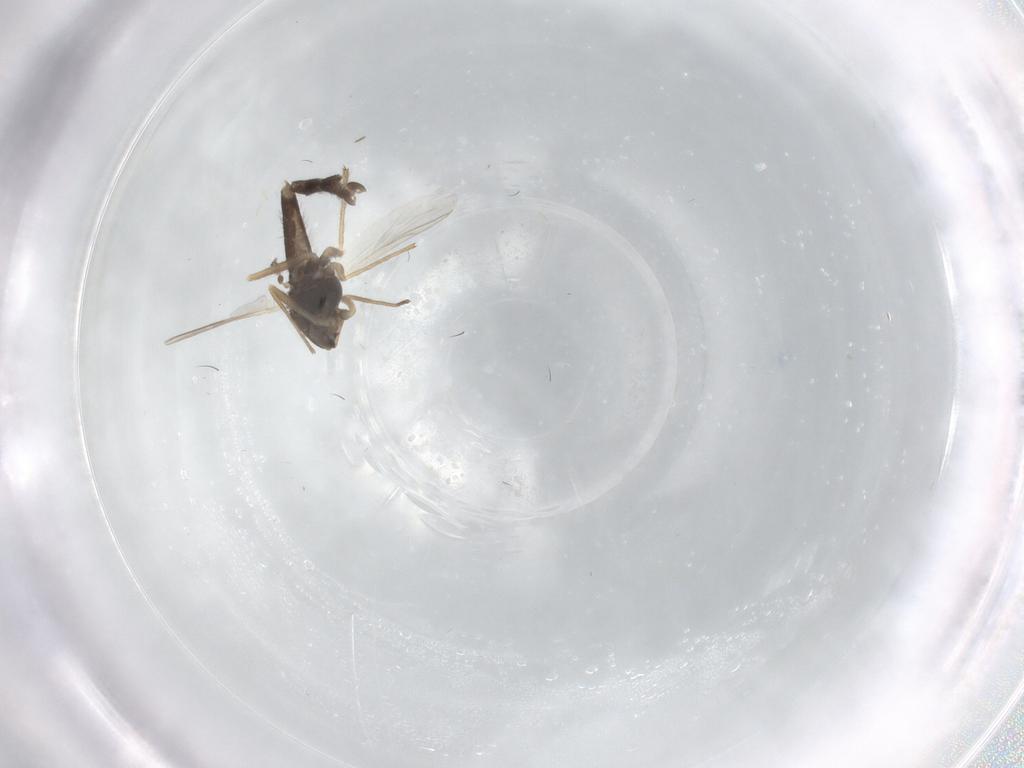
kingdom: Animalia
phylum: Arthropoda
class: Insecta
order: Diptera
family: Chironomidae
